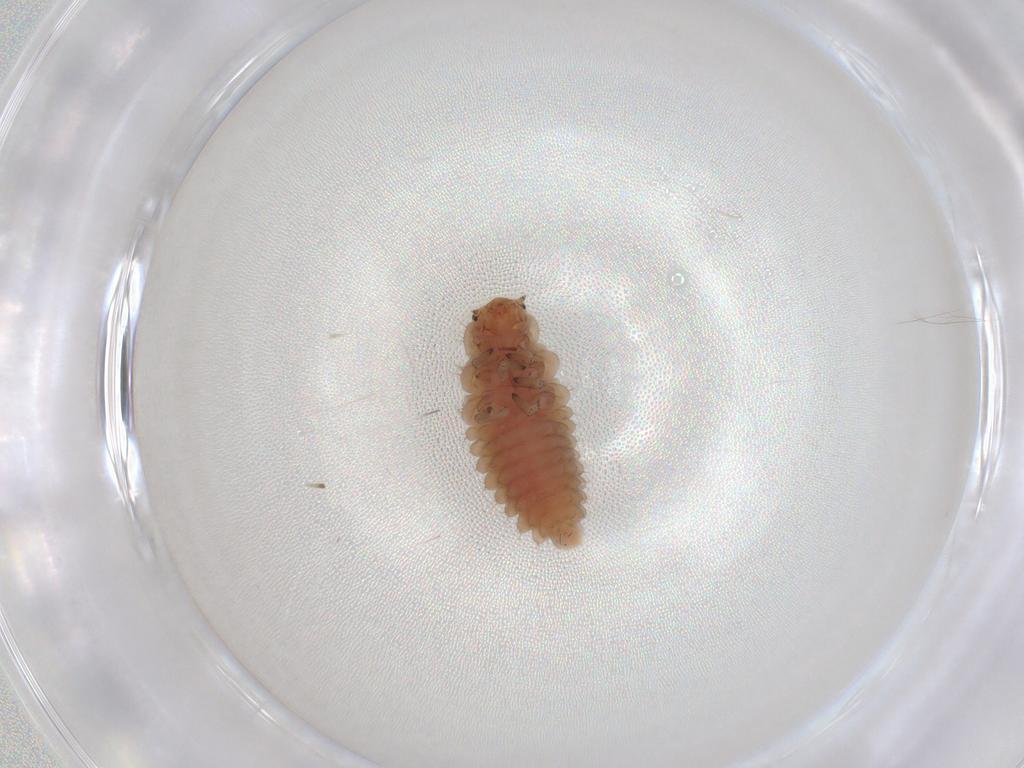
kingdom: Animalia
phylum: Arthropoda
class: Insecta
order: Coleoptera
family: Coccinellidae
